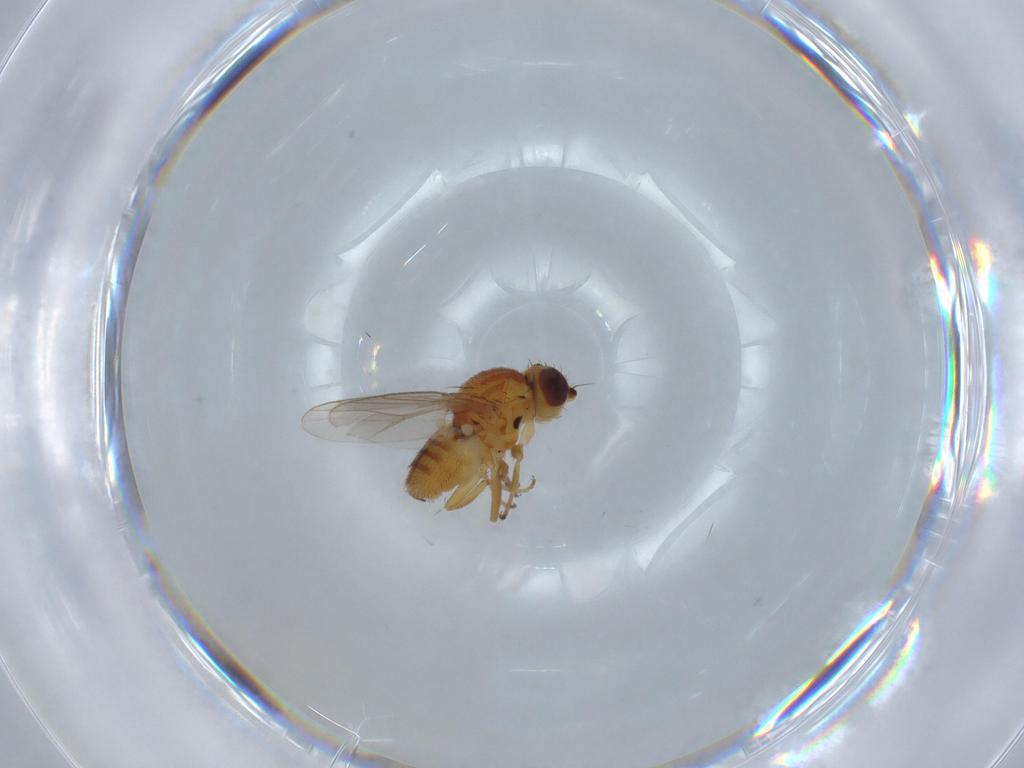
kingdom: Animalia
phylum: Arthropoda
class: Insecta
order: Diptera
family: Chloropidae
